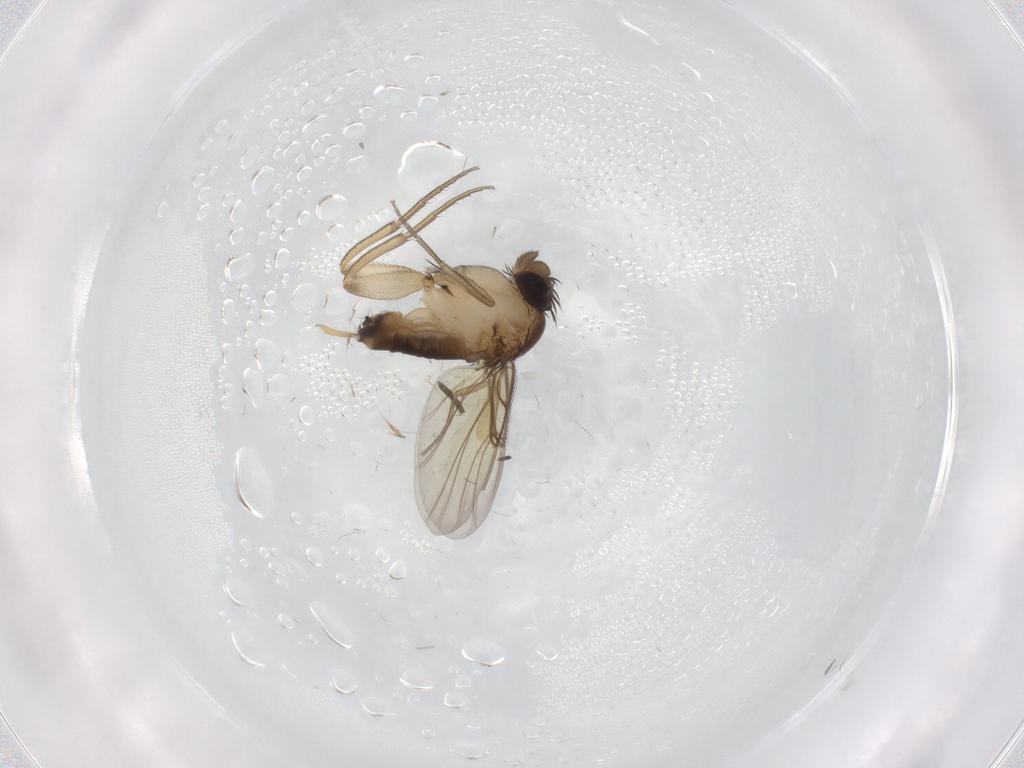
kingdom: Animalia
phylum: Arthropoda
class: Insecta
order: Diptera
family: Phoridae
